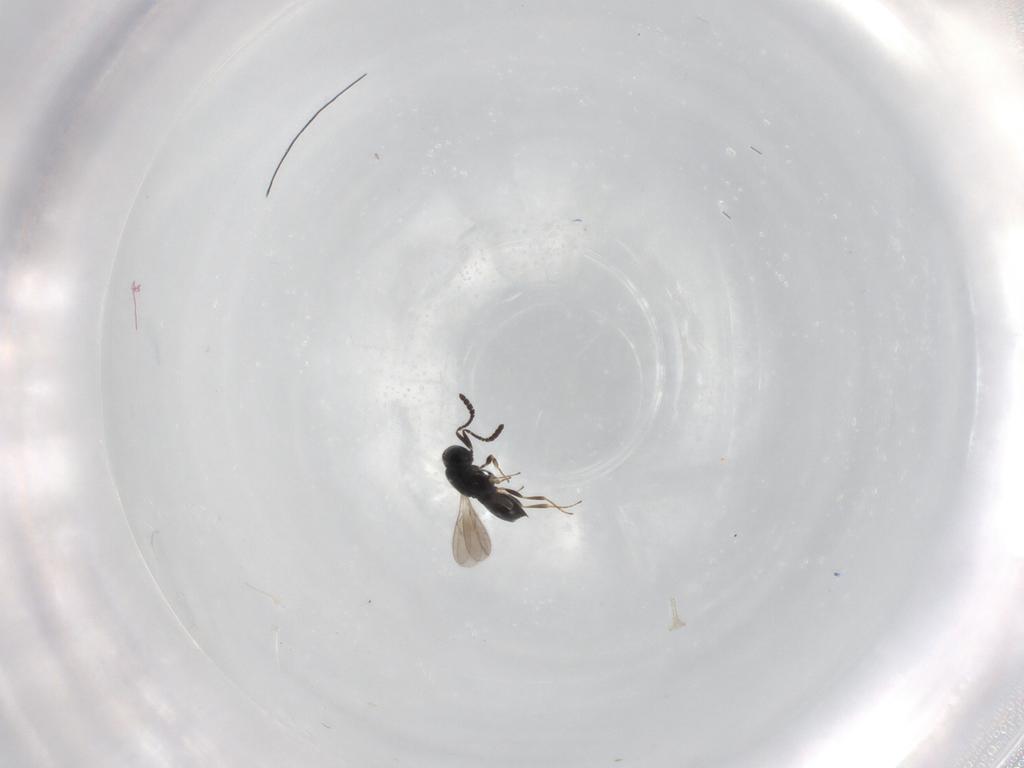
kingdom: Animalia
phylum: Arthropoda
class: Insecta
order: Hymenoptera
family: Scelionidae
